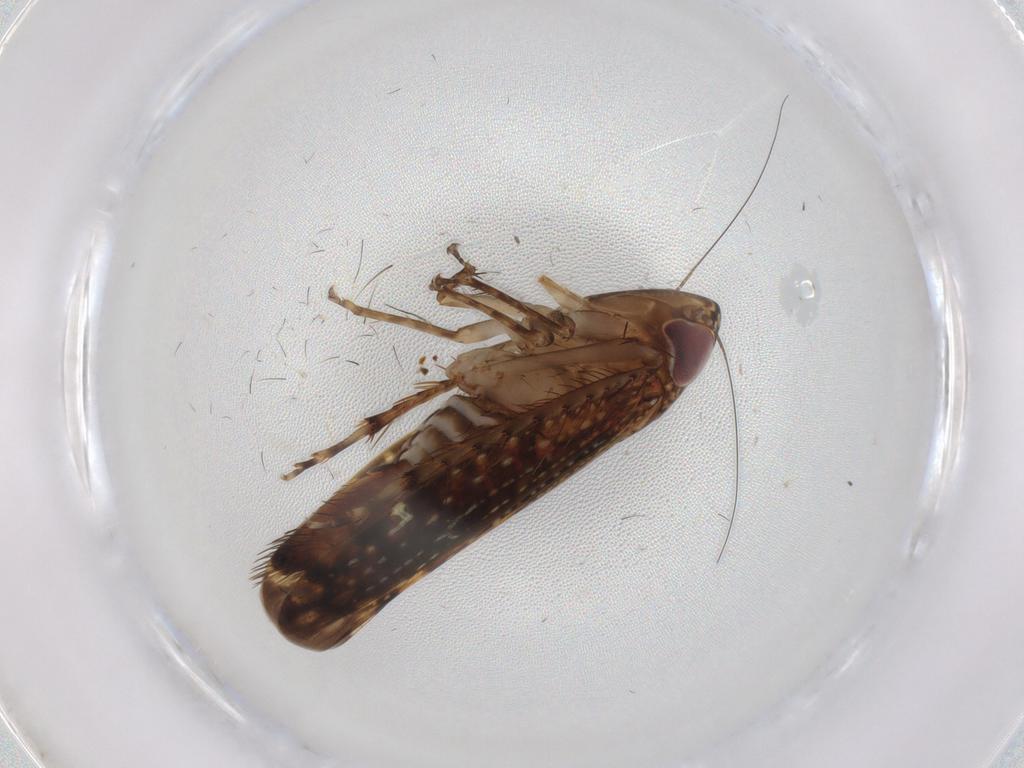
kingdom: Animalia
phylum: Arthropoda
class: Insecta
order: Hemiptera
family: Cicadellidae
